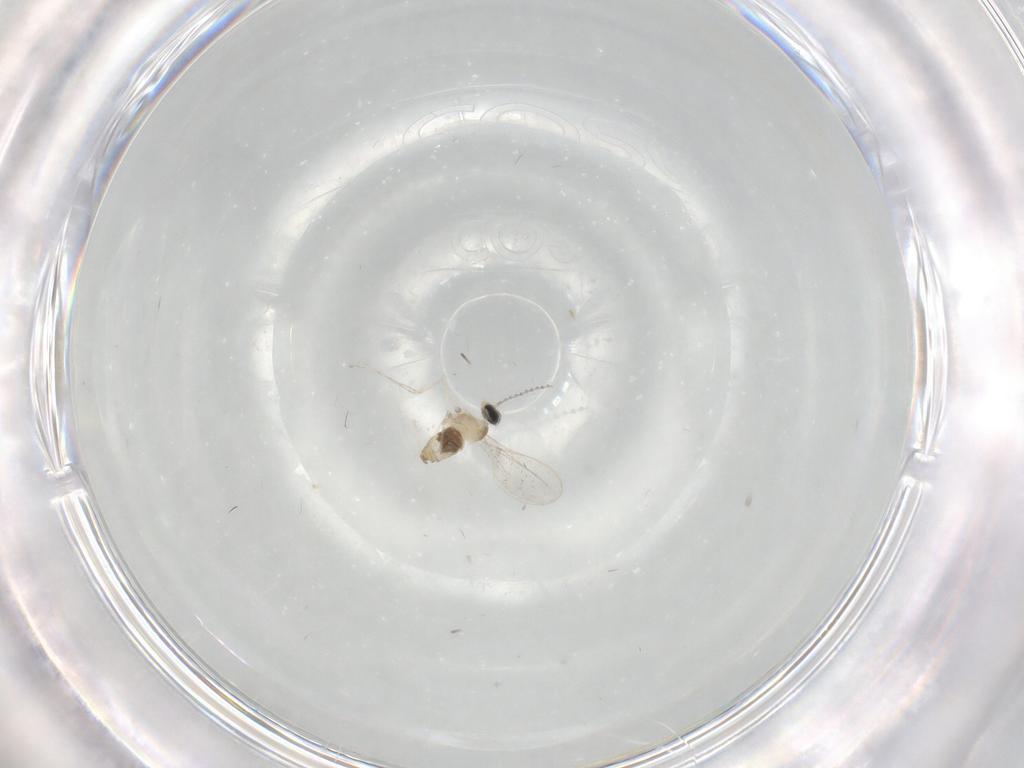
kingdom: Animalia
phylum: Arthropoda
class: Insecta
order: Diptera
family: Cecidomyiidae
